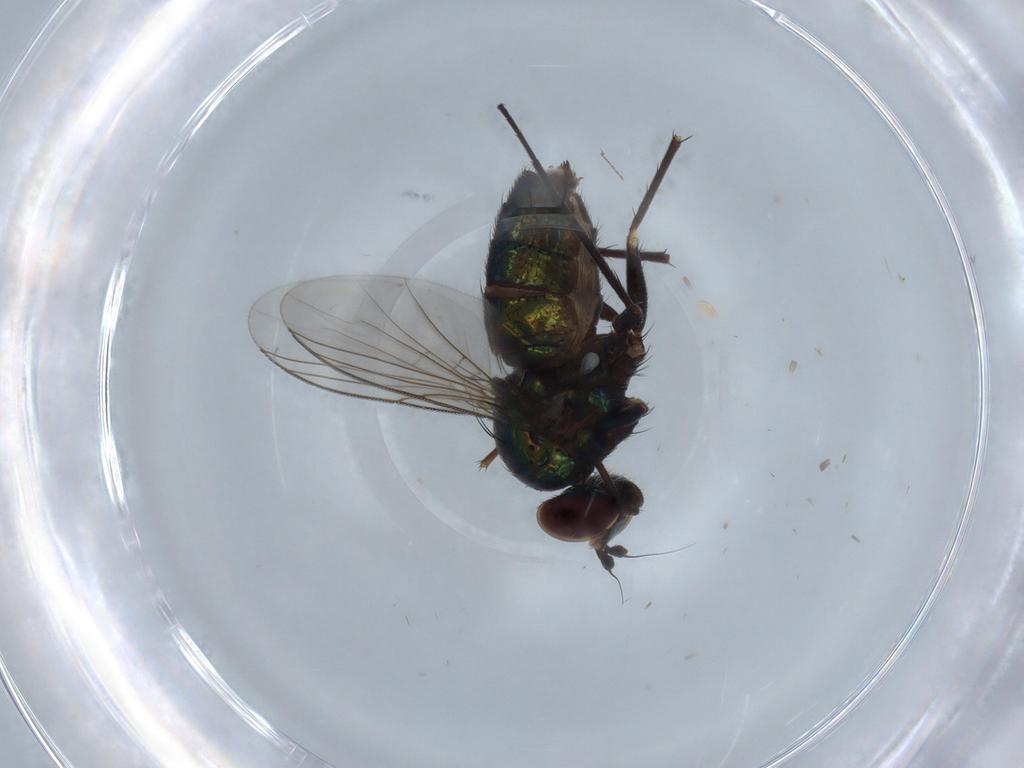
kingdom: Animalia
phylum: Arthropoda
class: Insecta
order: Diptera
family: Dolichopodidae
